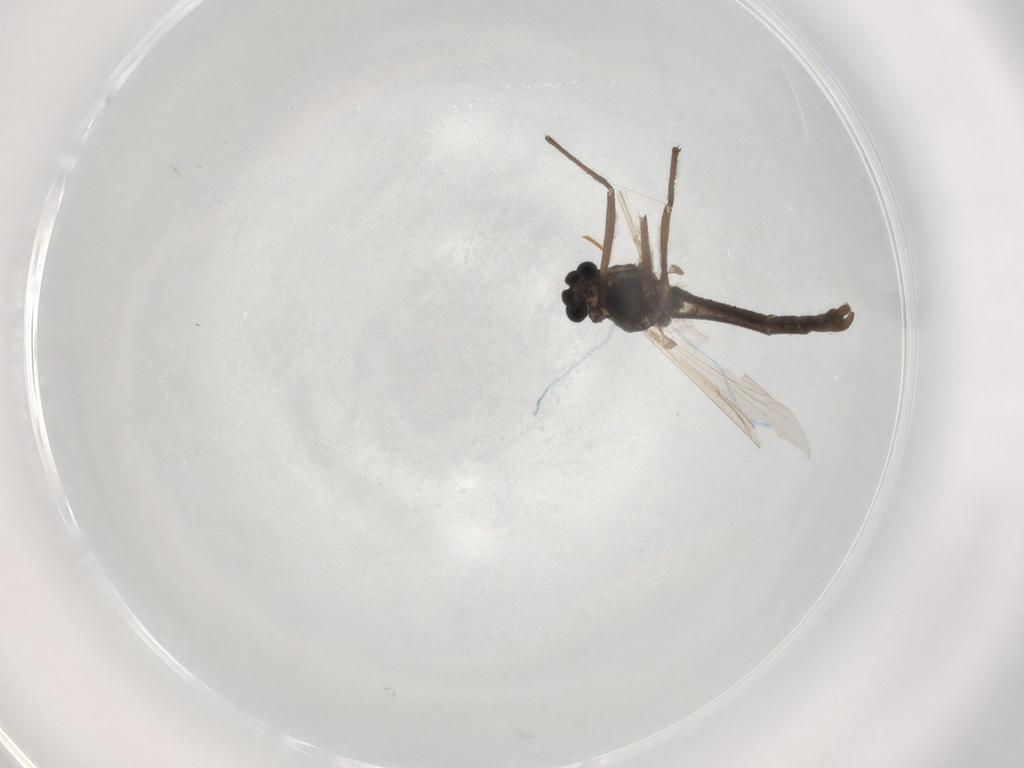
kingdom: Animalia
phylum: Arthropoda
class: Insecta
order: Diptera
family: Chironomidae
